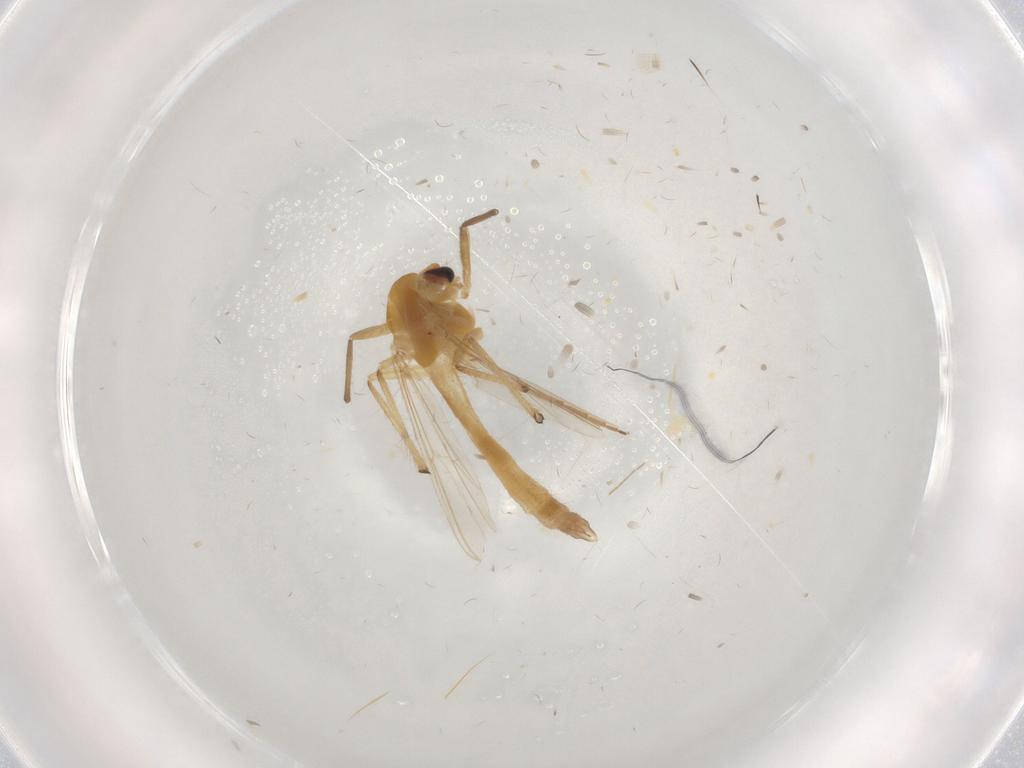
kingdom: Animalia
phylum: Arthropoda
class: Insecta
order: Diptera
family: Chironomidae
